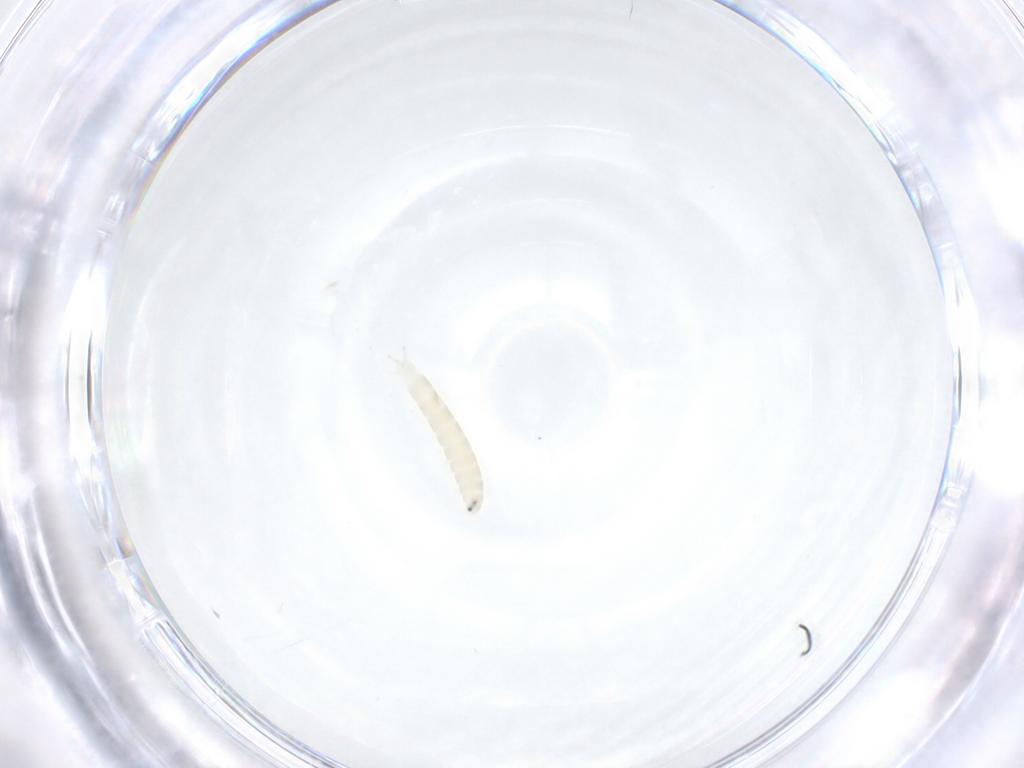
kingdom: Animalia
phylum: Arthropoda
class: Insecta
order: Diptera
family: Tachinidae
